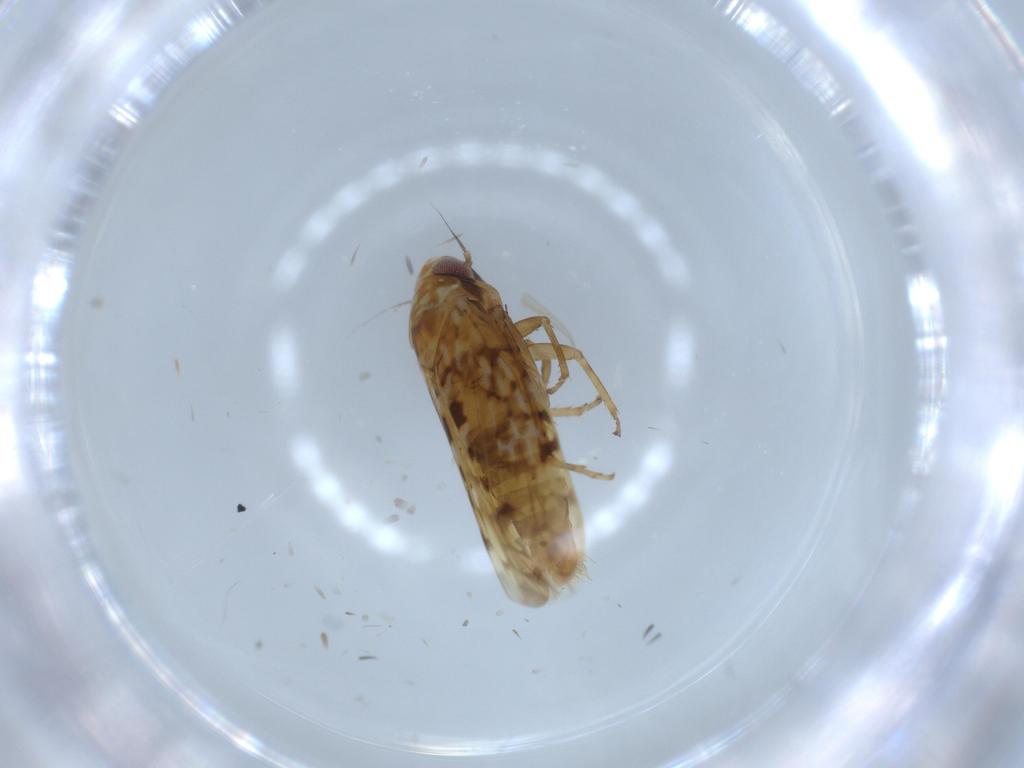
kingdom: Animalia
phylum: Arthropoda
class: Insecta
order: Hemiptera
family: Cicadellidae
